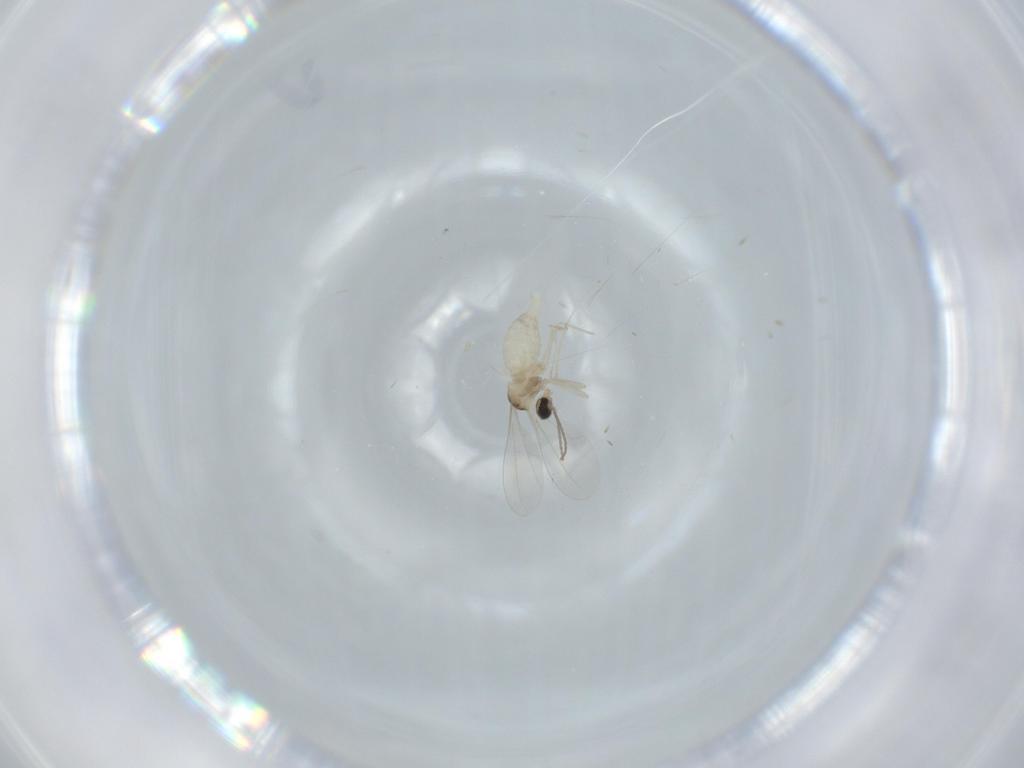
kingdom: Animalia
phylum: Arthropoda
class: Insecta
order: Diptera
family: Cecidomyiidae
